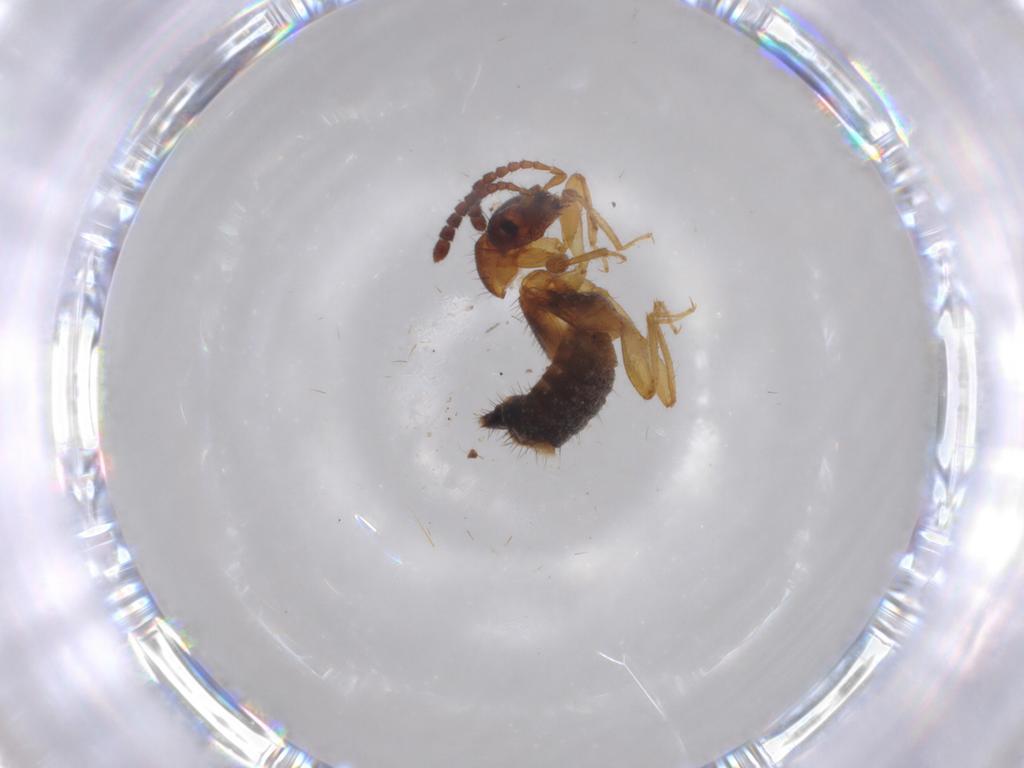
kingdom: Animalia
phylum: Arthropoda
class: Insecta
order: Coleoptera
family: Staphylinidae
